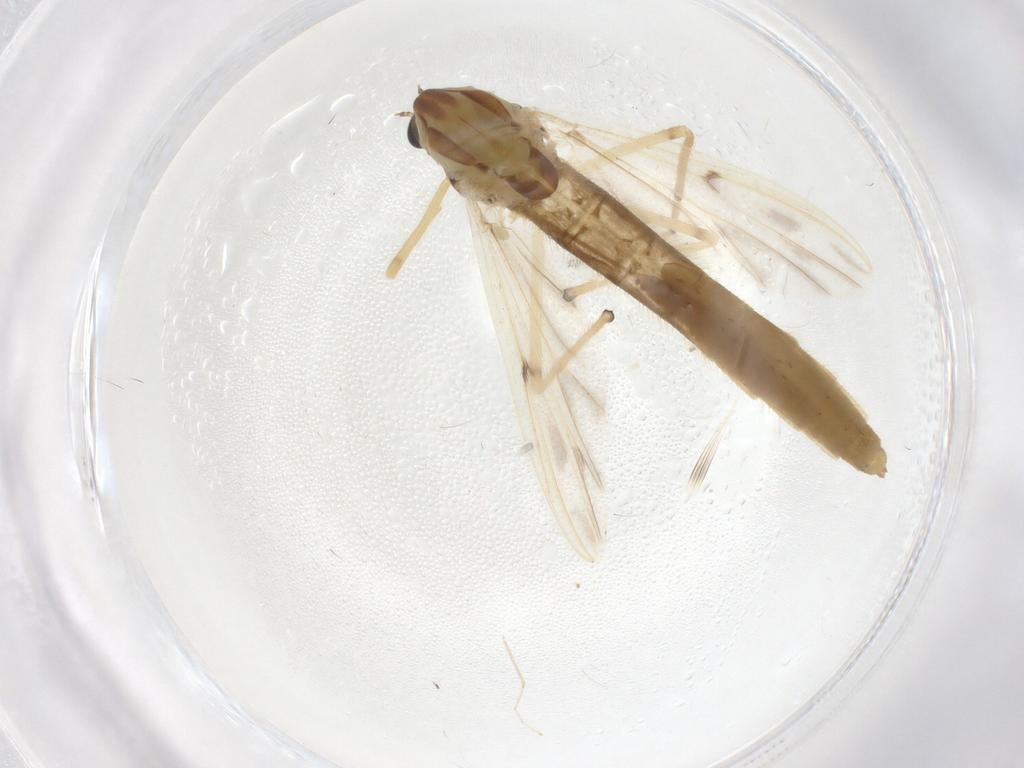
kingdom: Animalia
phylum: Arthropoda
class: Insecta
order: Diptera
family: Chironomidae
